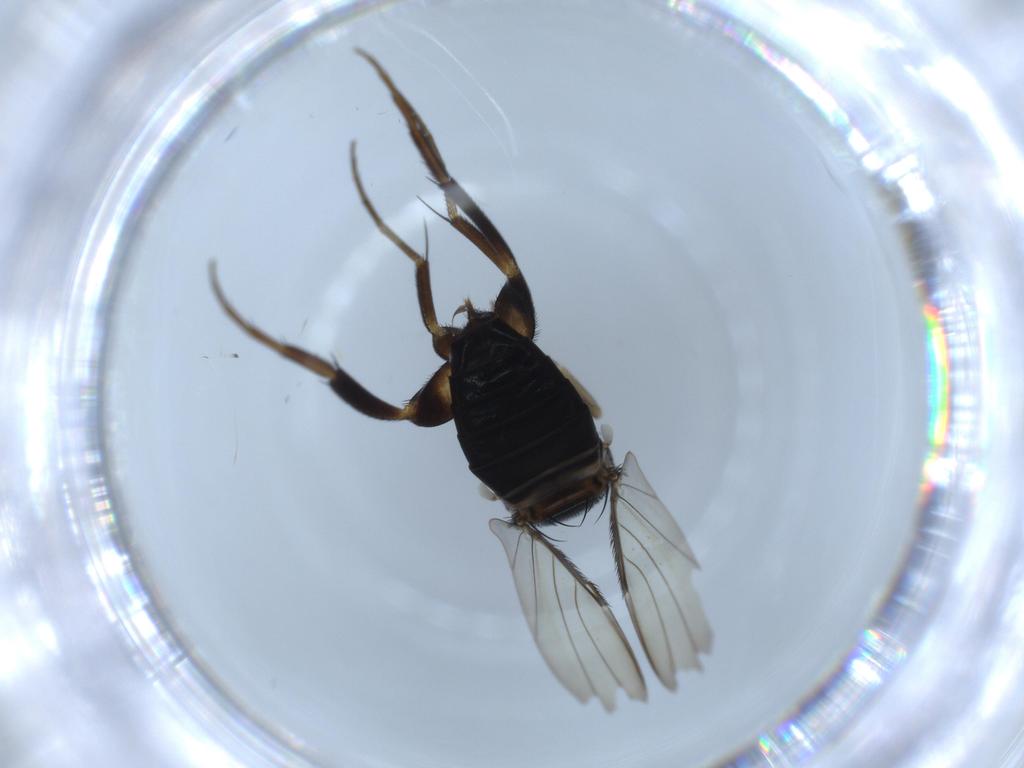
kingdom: Animalia
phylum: Arthropoda
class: Insecta
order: Diptera
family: Phoridae
